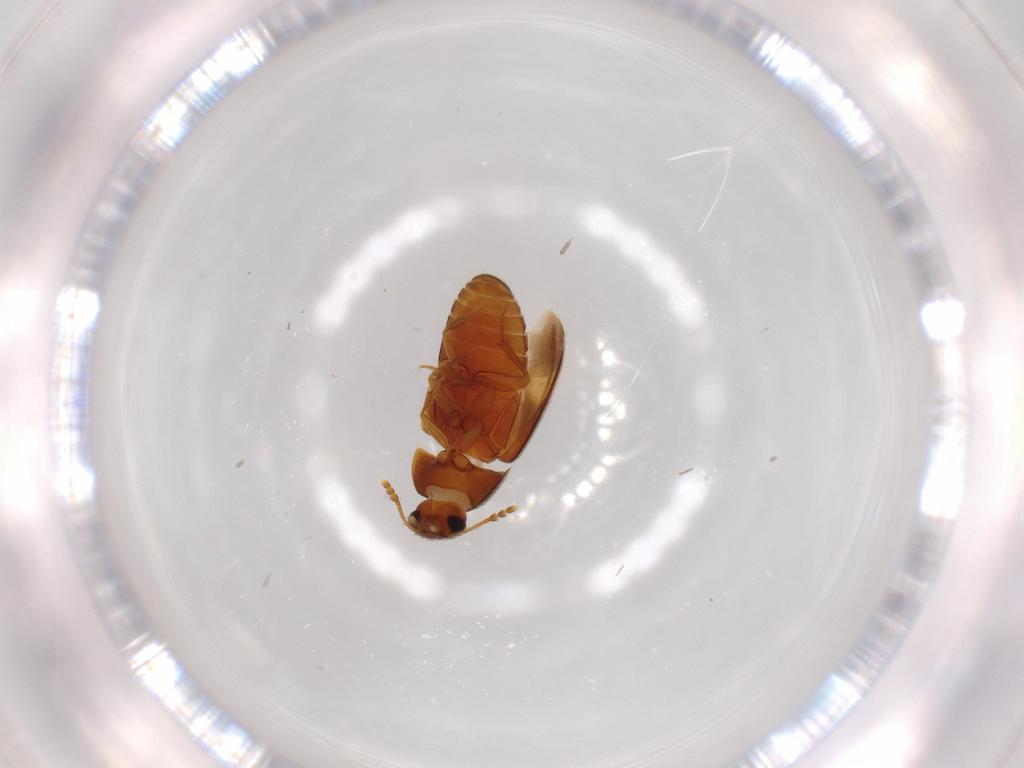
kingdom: Animalia
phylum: Arthropoda
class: Insecta
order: Coleoptera
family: Mycetophagidae
